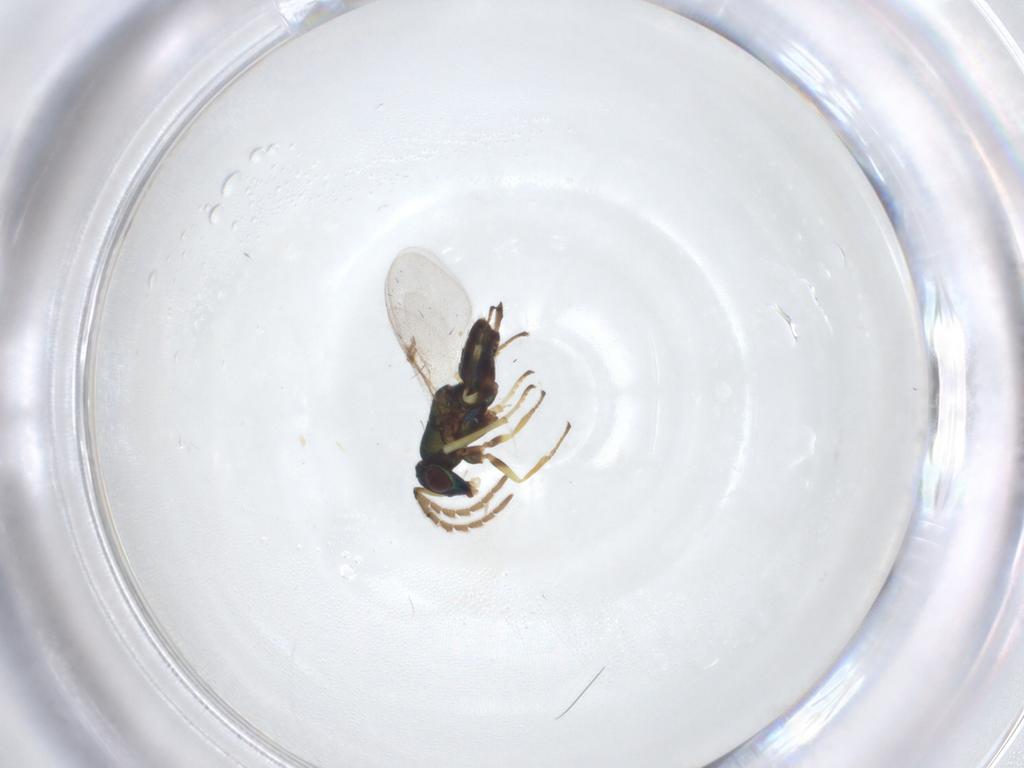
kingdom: Animalia
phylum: Arthropoda
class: Insecta
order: Hymenoptera
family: Encyrtidae
